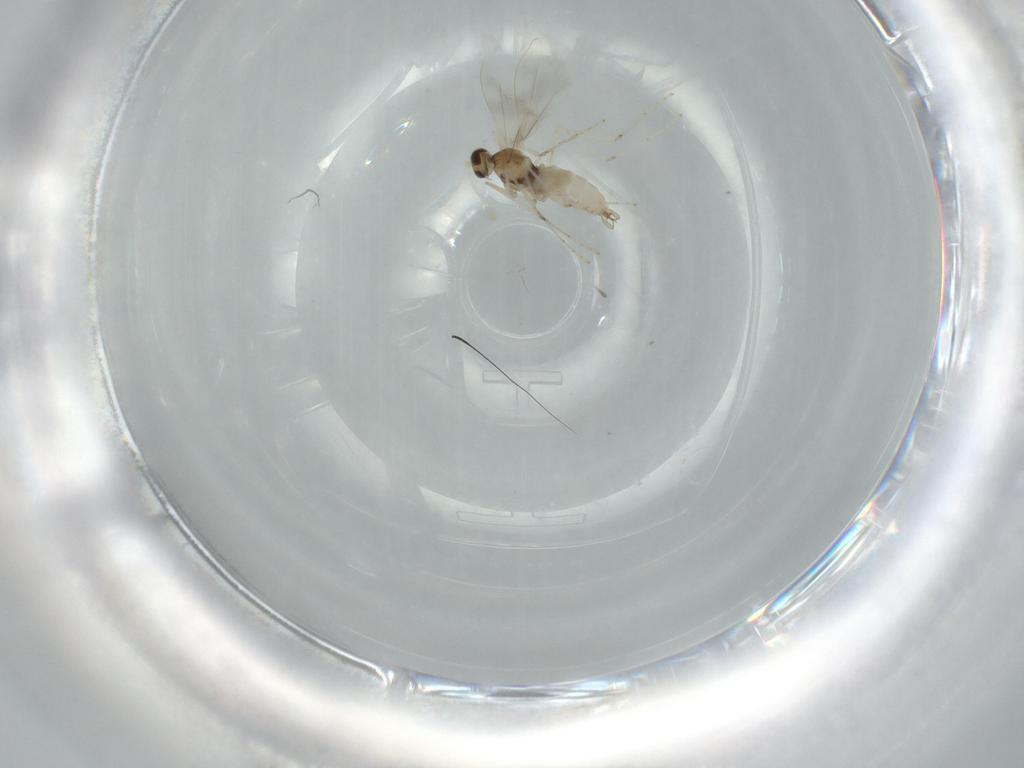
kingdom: Animalia
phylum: Arthropoda
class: Insecta
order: Diptera
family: Cecidomyiidae
